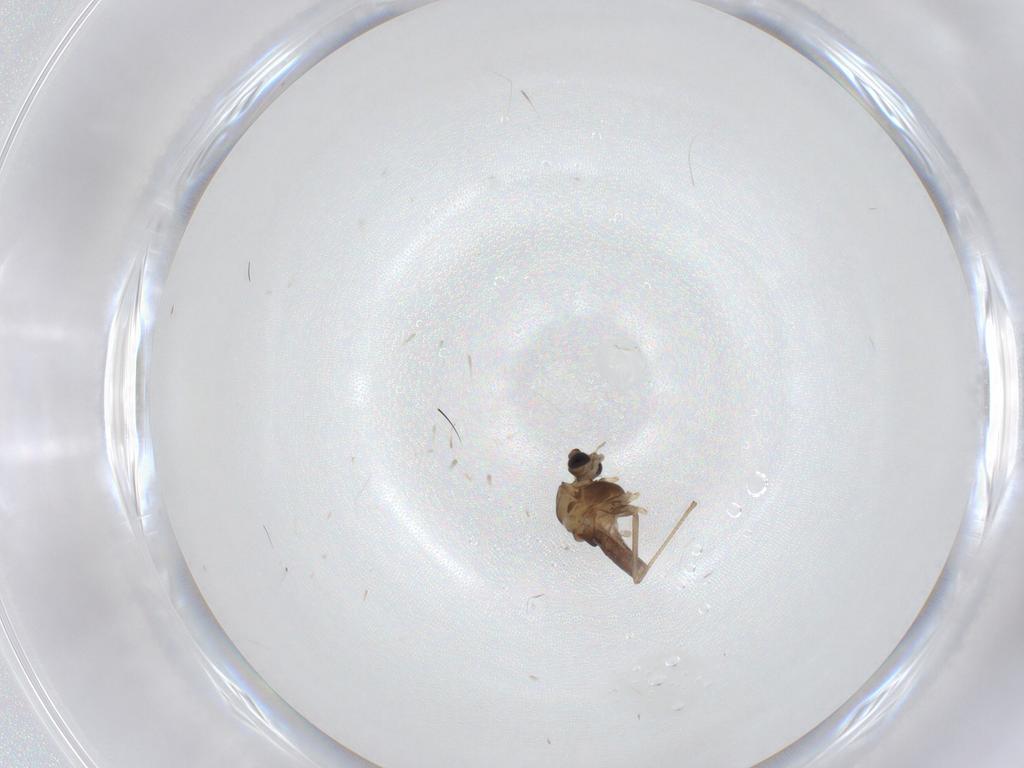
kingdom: Animalia
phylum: Arthropoda
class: Insecta
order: Diptera
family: Chironomidae
